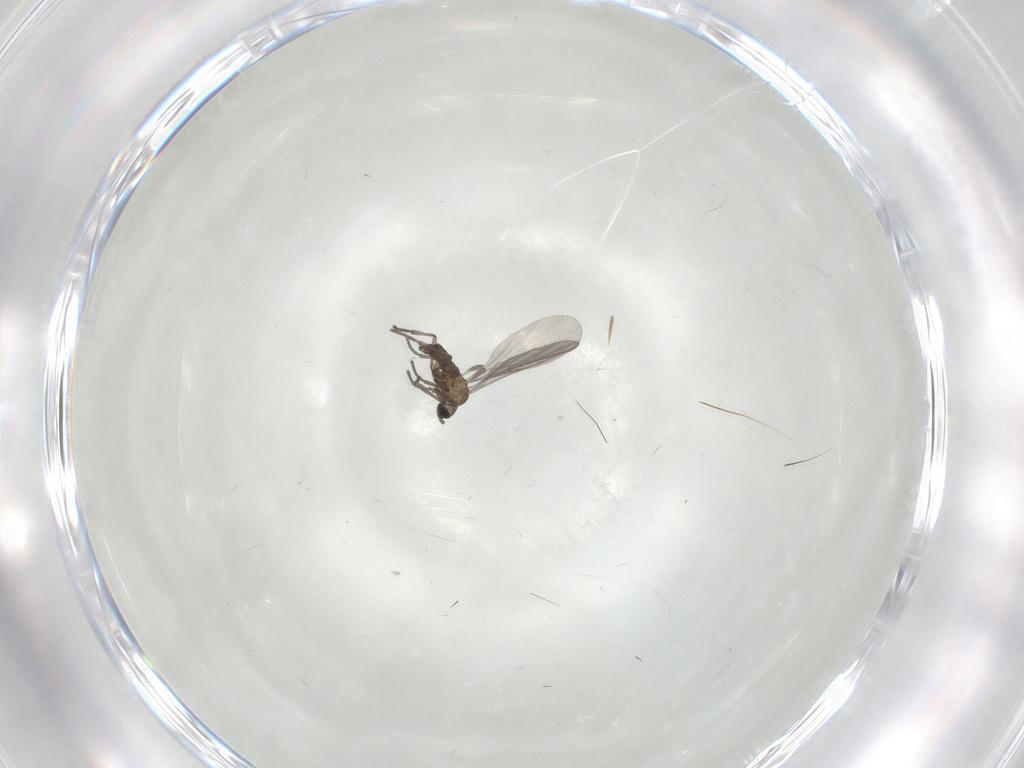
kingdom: Animalia
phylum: Arthropoda
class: Insecta
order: Diptera
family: Sciaridae
